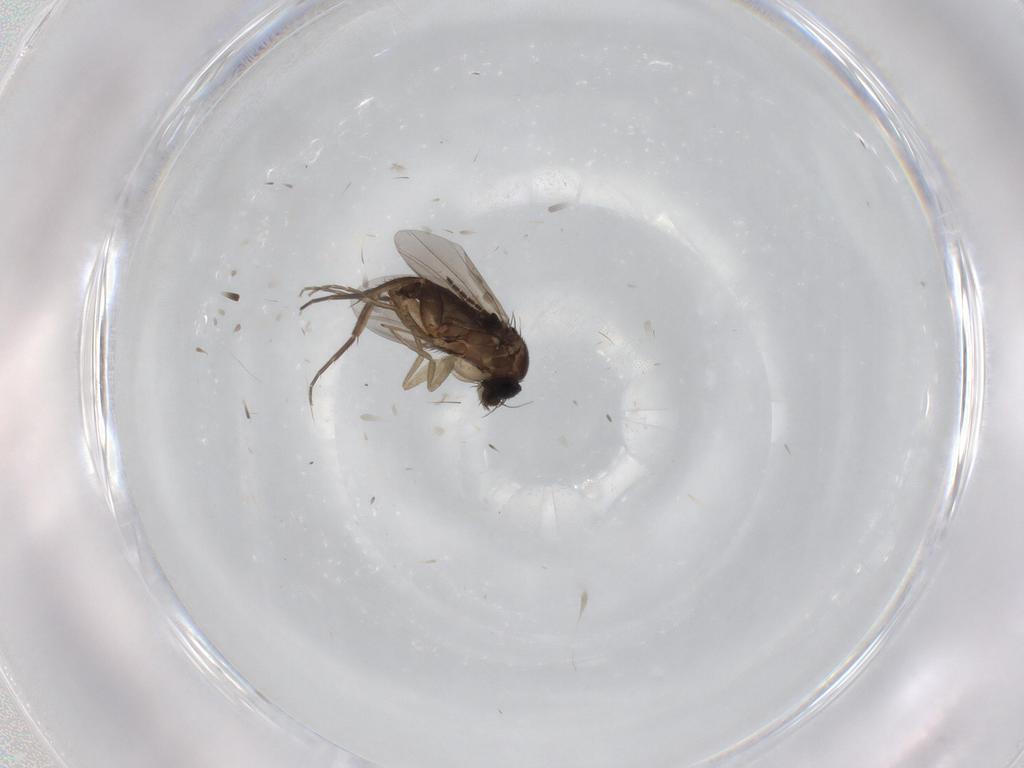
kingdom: Animalia
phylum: Arthropoda
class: Insecta
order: Diptera
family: Phoridae
